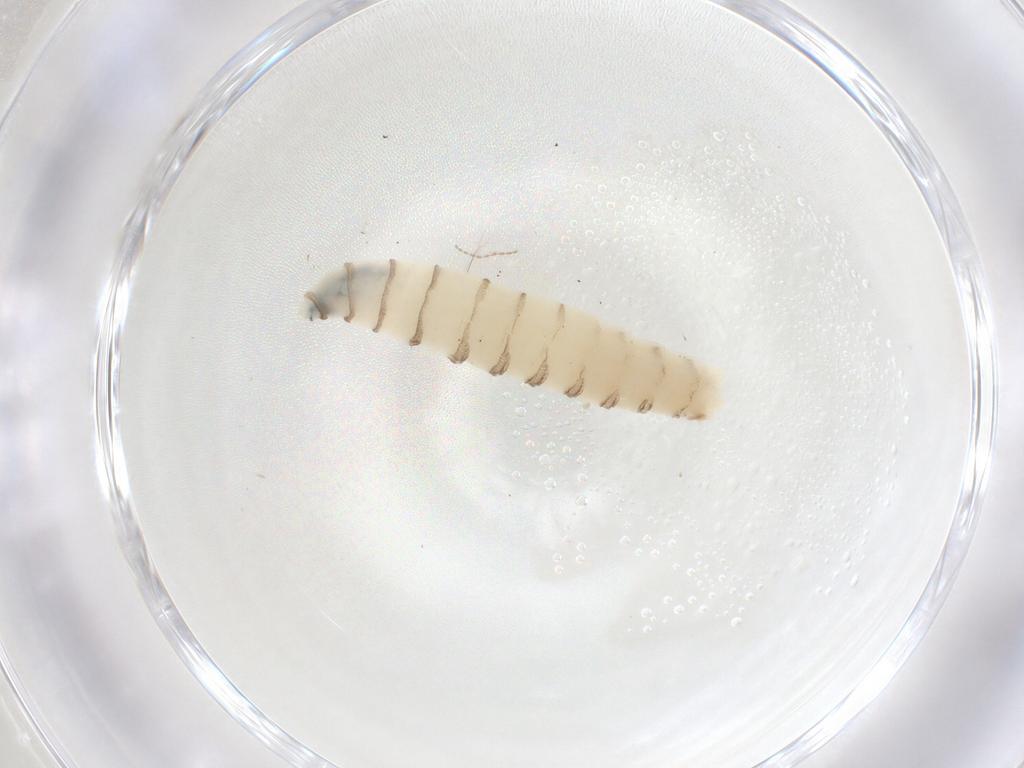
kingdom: Animalia
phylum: Arthropoda
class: Insecta
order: Diptera
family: Sarcophagidae
